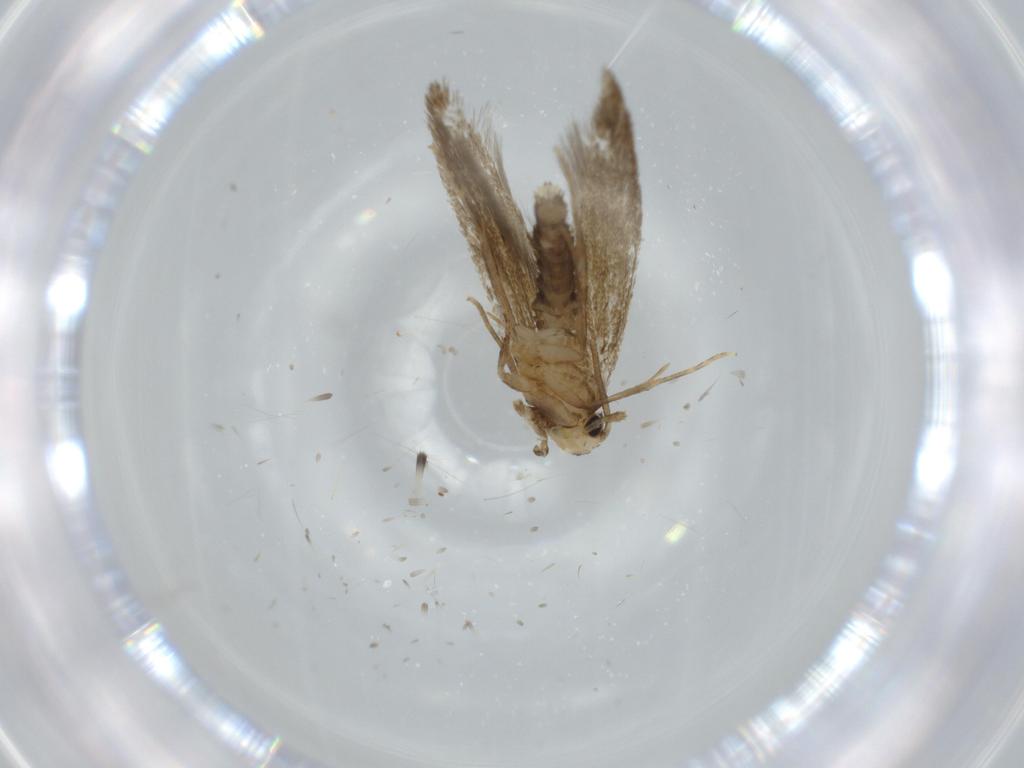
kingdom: Animalia
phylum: Arthropoda
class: Insecta
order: Lepidoptera
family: Tineidae
